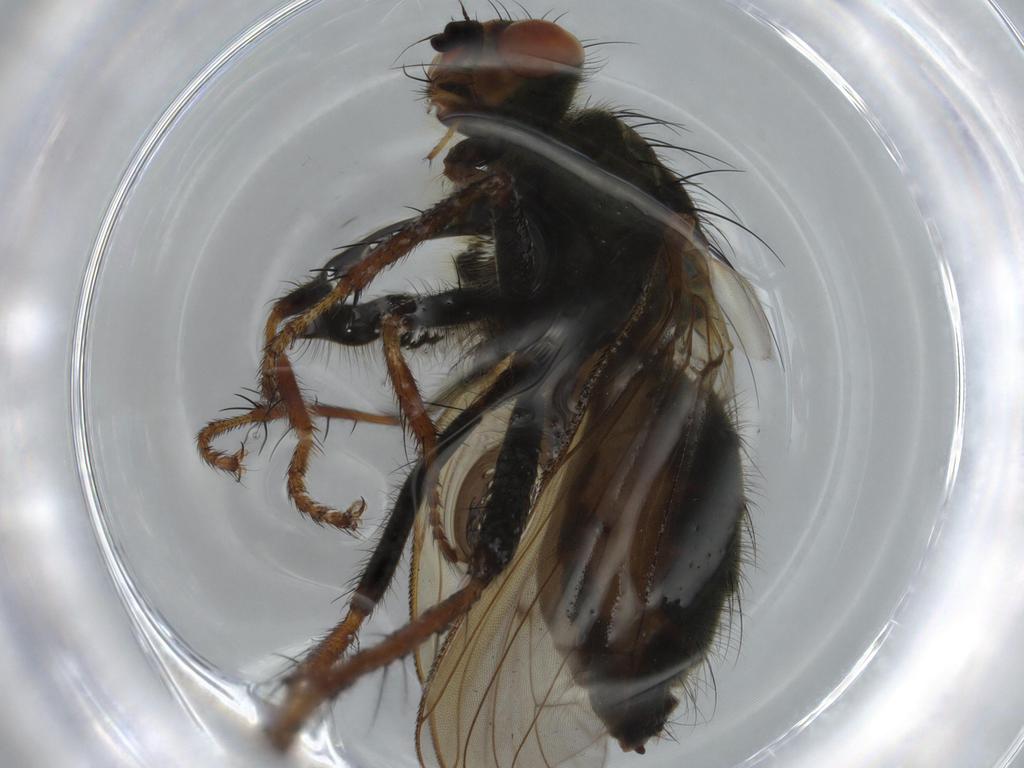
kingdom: Animalia
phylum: Arthropoda
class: Insecta
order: Diptera
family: Scathophagidae
